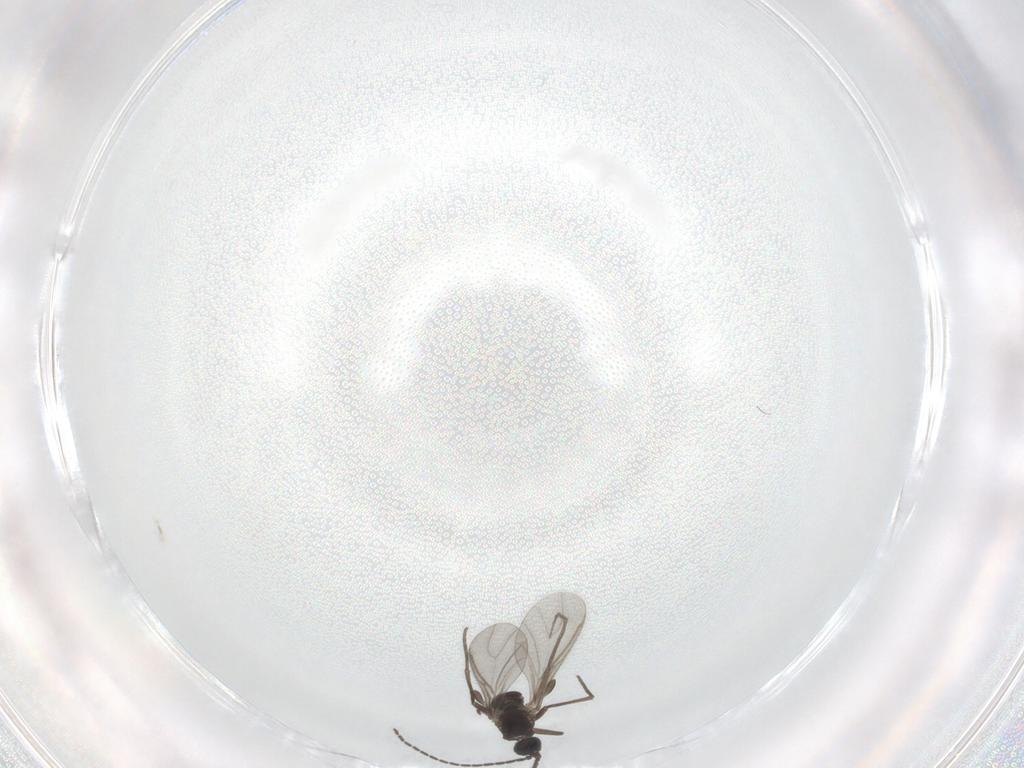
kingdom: Animalia
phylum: Arthropoda
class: Insecta
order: Diptera
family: Sciaridae
